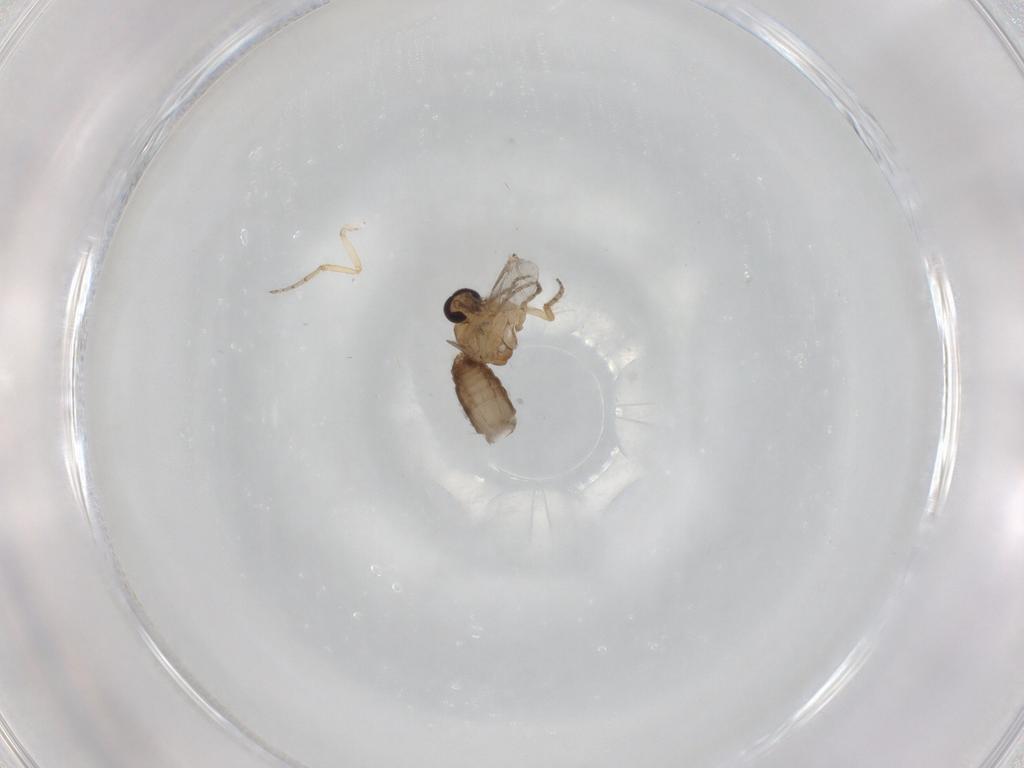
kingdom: Animalia
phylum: Arthropoda
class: Insecta
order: Diptera
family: Ceratopogonidae
